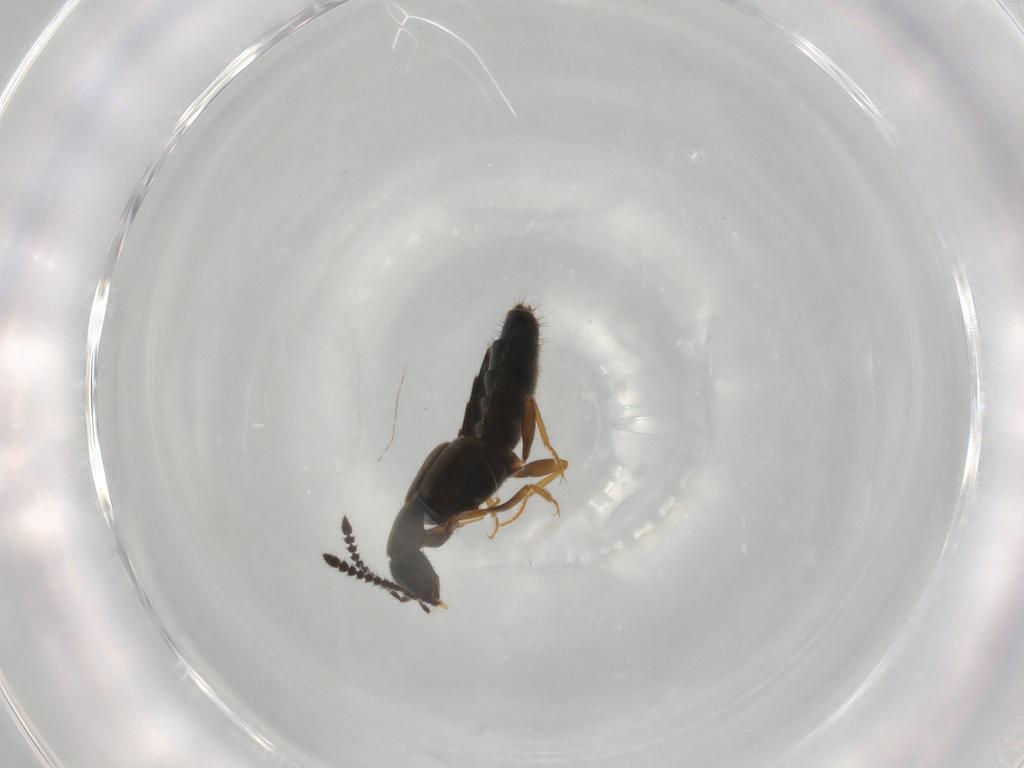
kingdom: Animalia
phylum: Arthropoda
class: Insecta
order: Coleoptera
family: Staphylinidae
